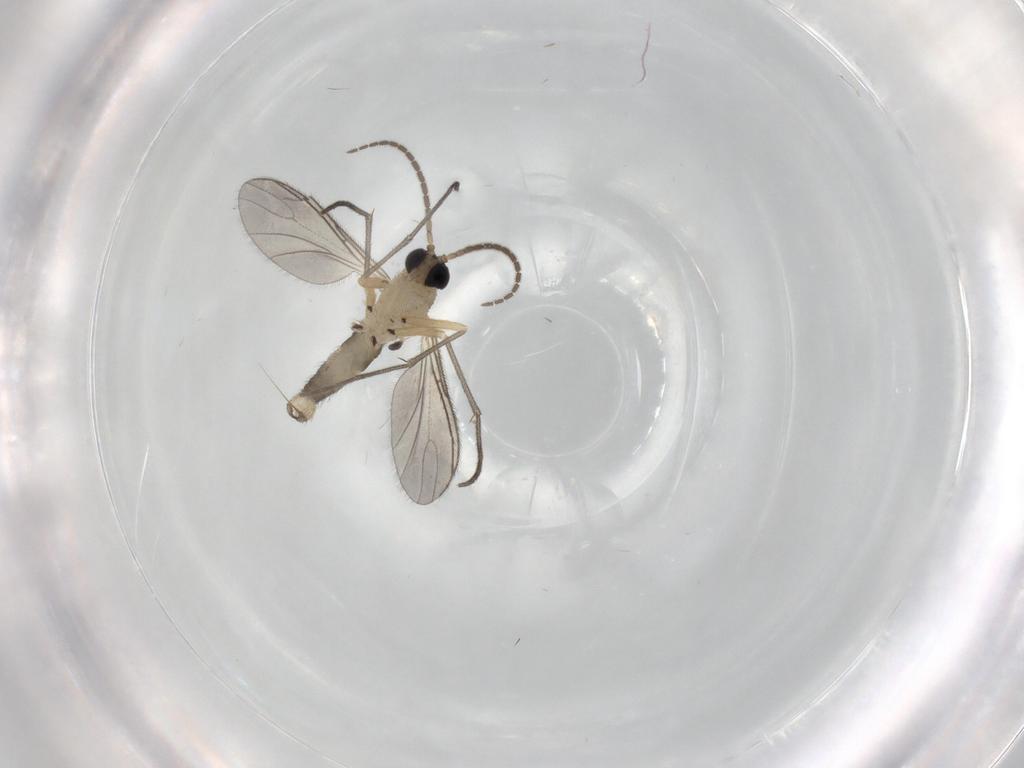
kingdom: Animalia
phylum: Arthropoda
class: Insecta
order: Diptera
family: Sciaridae
